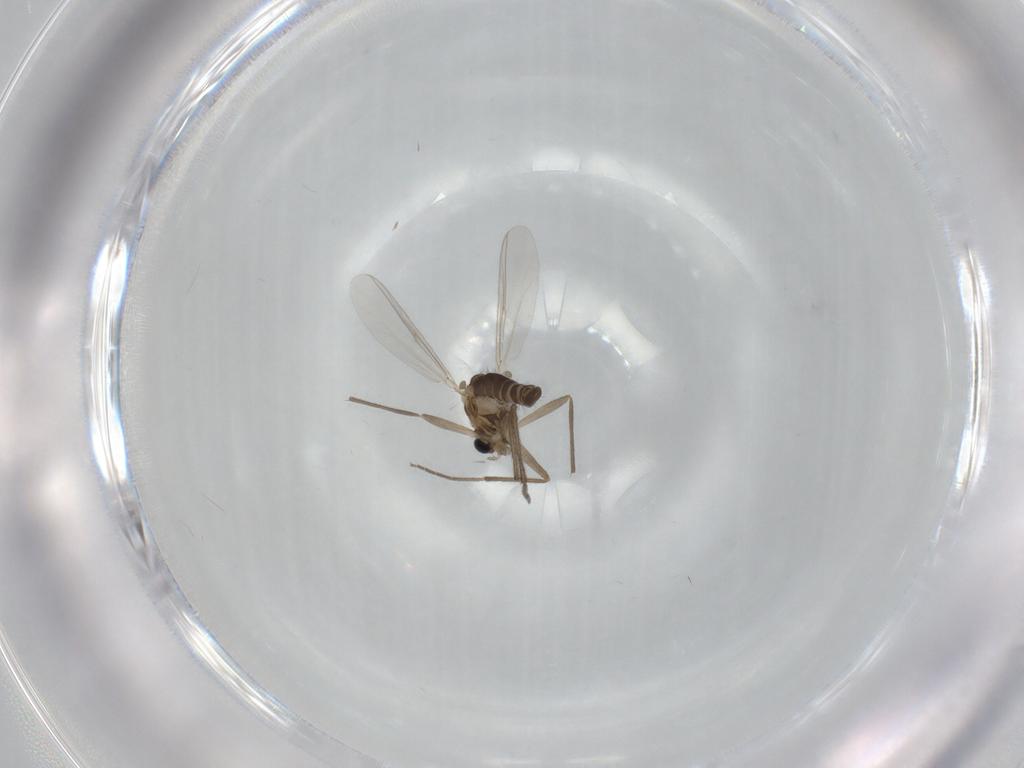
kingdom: Animalia
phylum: Arthropoda
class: Insecta
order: Diptera
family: Chironomidae
